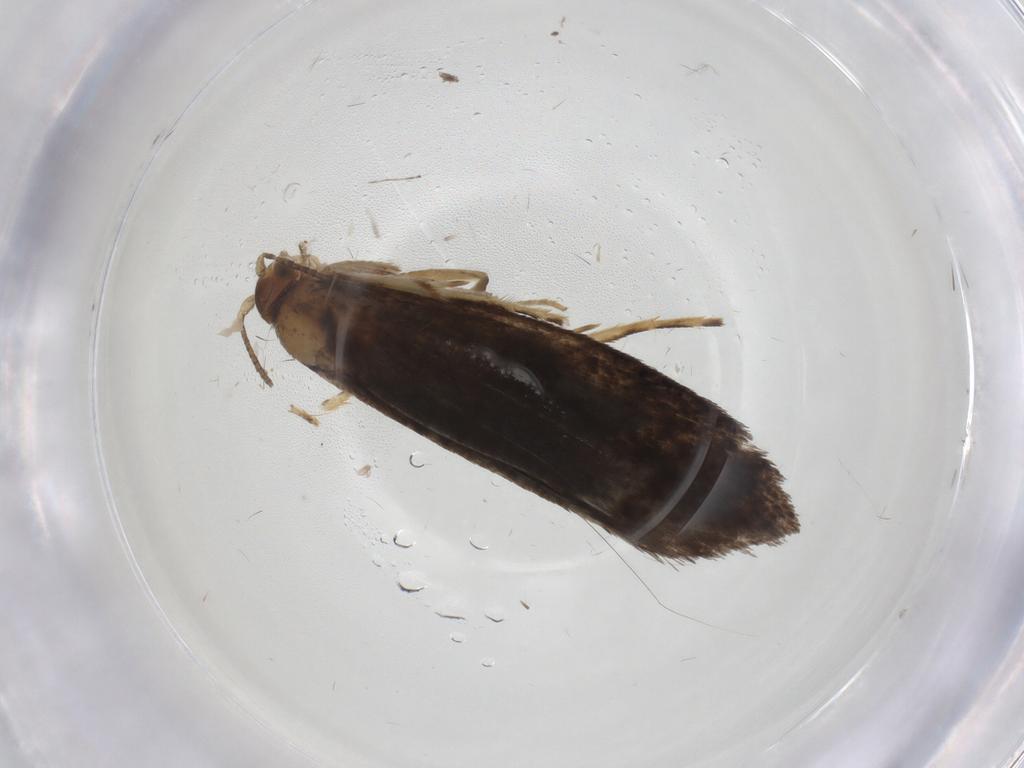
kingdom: Animalia
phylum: Arthropoda
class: Insecta
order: Lepidoptera
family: Tineidae
